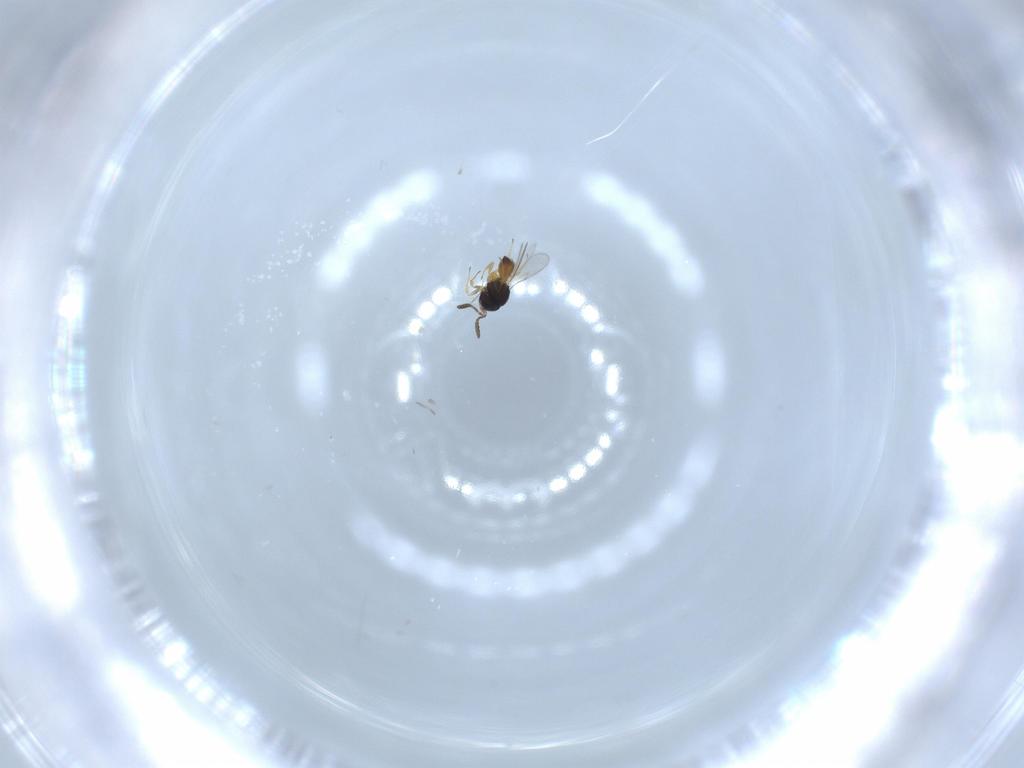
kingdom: Animalia
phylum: Arthropoda
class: Insecta
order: Hymenoptera
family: Scelionidae
